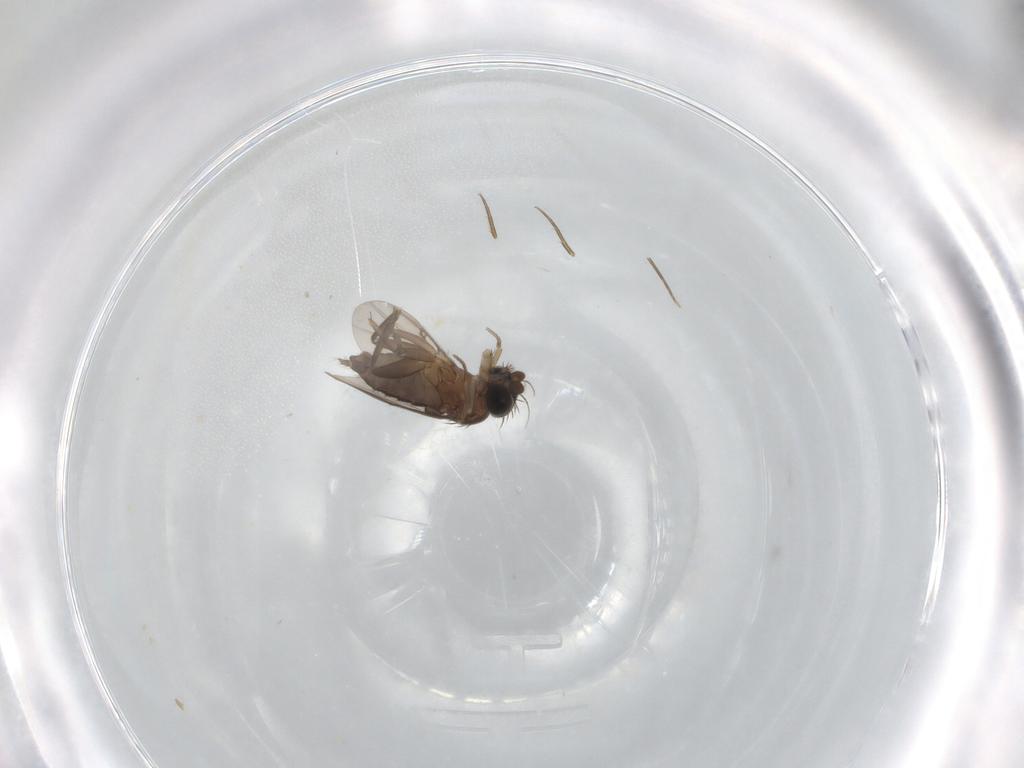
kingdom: Animalia
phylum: Arthropoda
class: Insecta
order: Diptera
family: Phoridae
